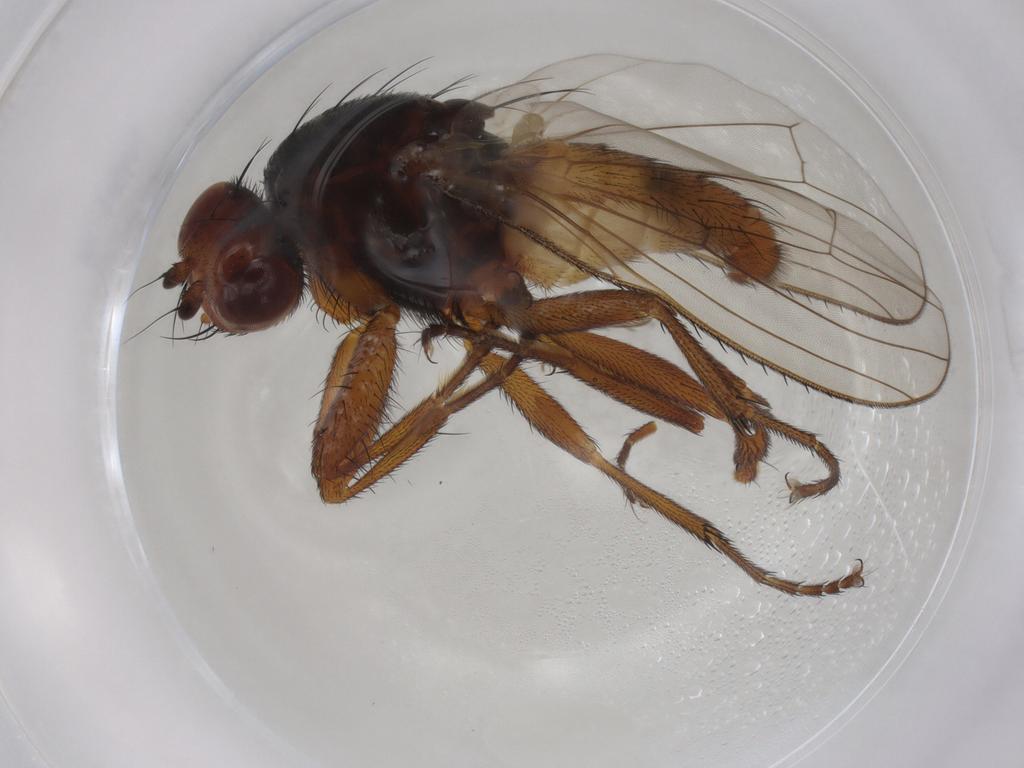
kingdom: Animalia
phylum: Arthropoda
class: Insecta
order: Diptera
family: Heleomyzidae
